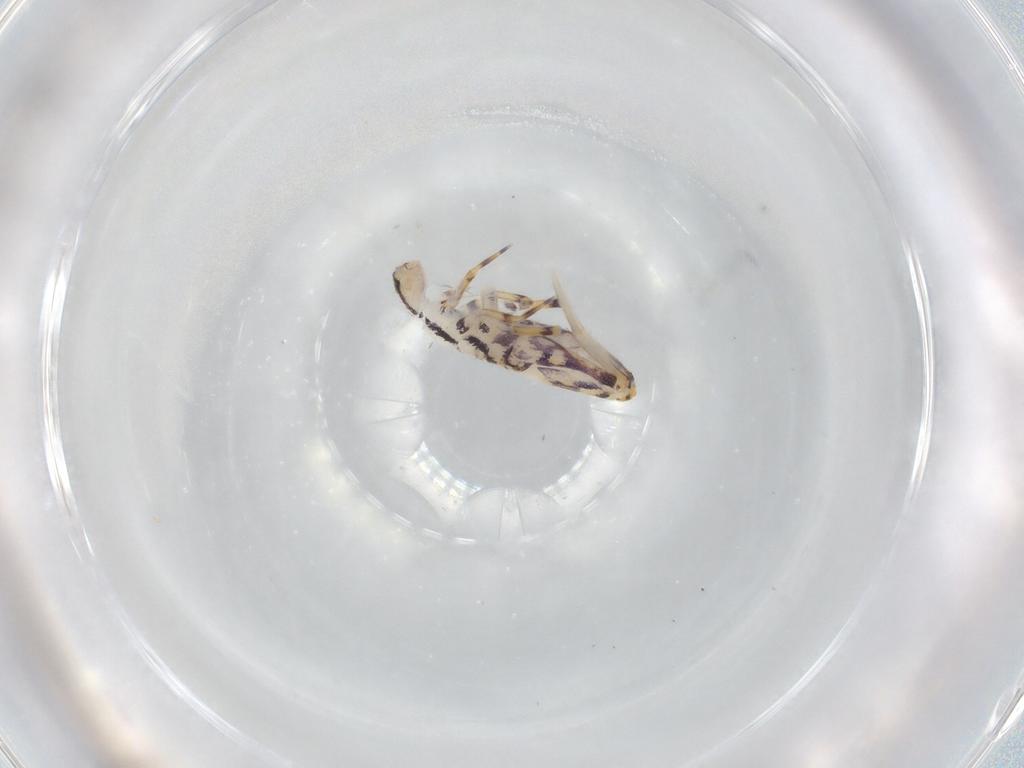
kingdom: Animalia
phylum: Arthropoda
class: Collembola
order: Entomobryomorpha
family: Entomobryidae
